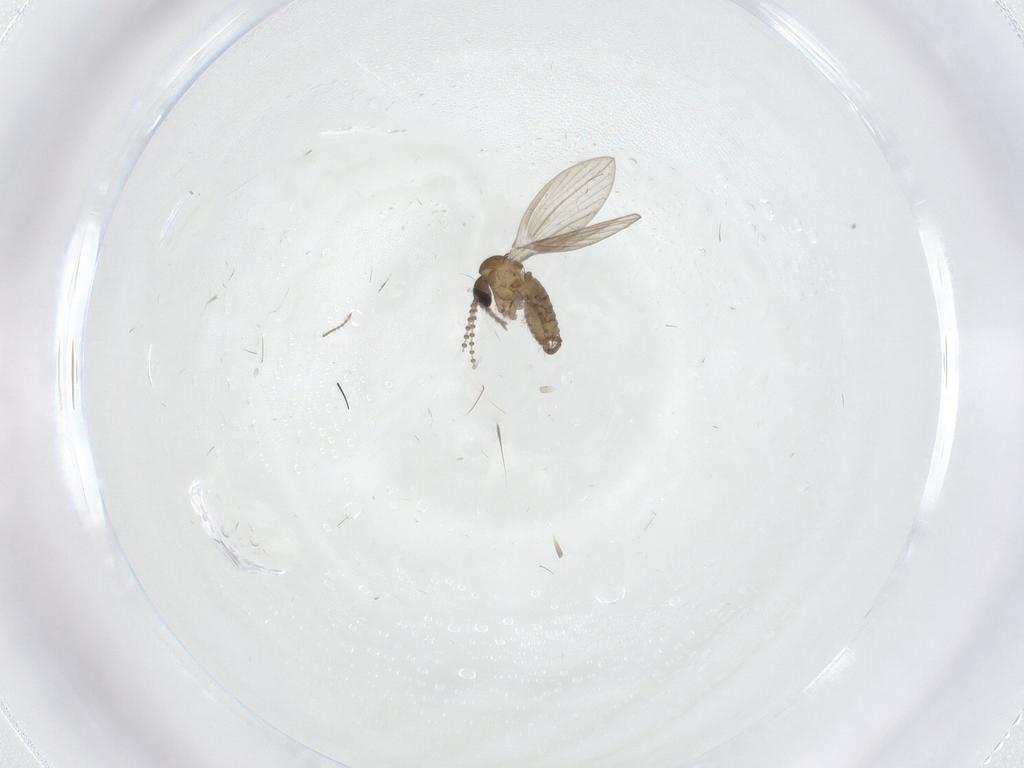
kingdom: Animalia
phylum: Arthropoda
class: Insecta
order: Diptera
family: Cecidomyiidae
